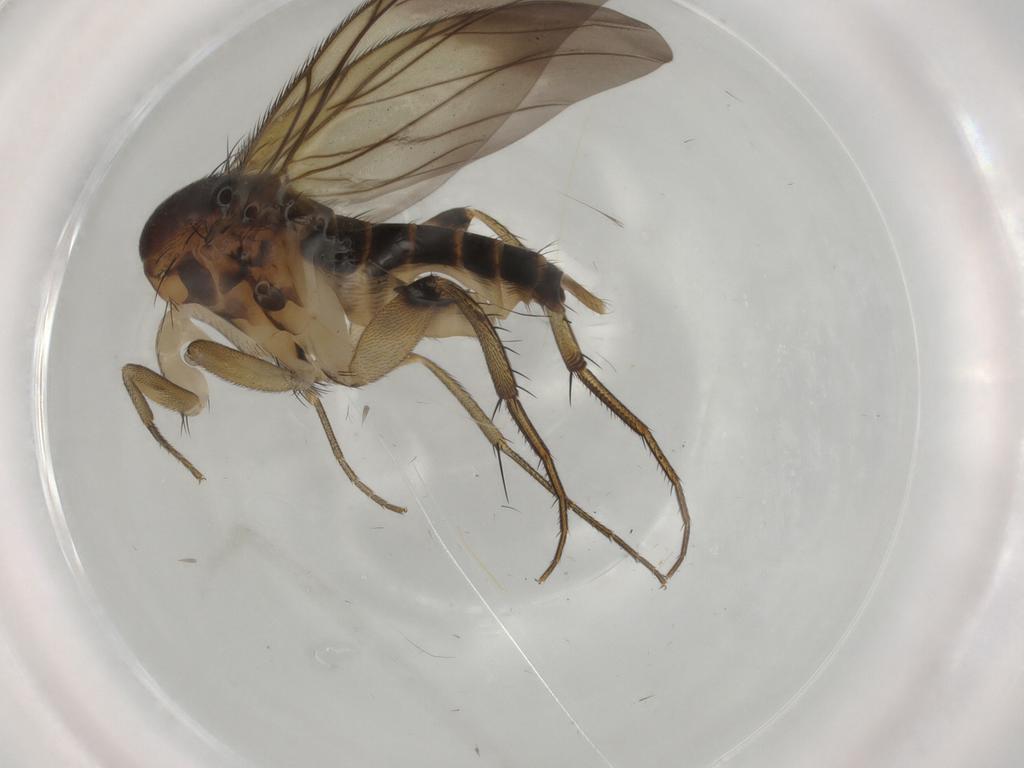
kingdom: Animalia
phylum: Arthropoda
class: Insecta
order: Diptera
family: Phoridae
